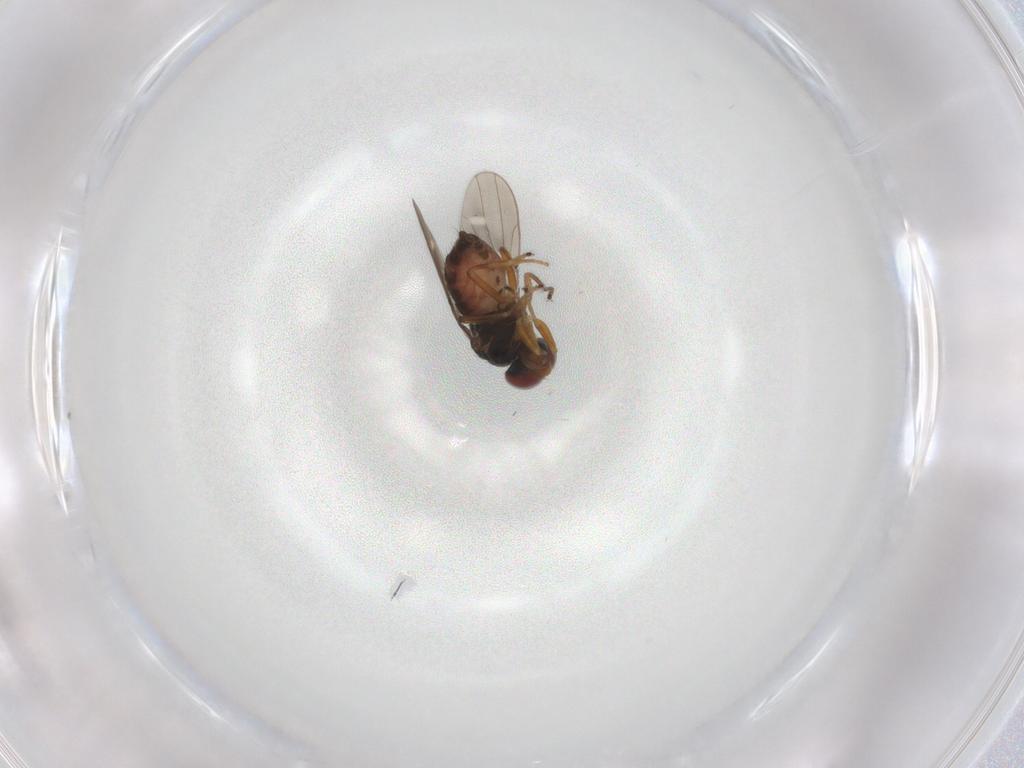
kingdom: Animalia
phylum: Arthropoda
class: Insecta
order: Diptera
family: Ephydridae
